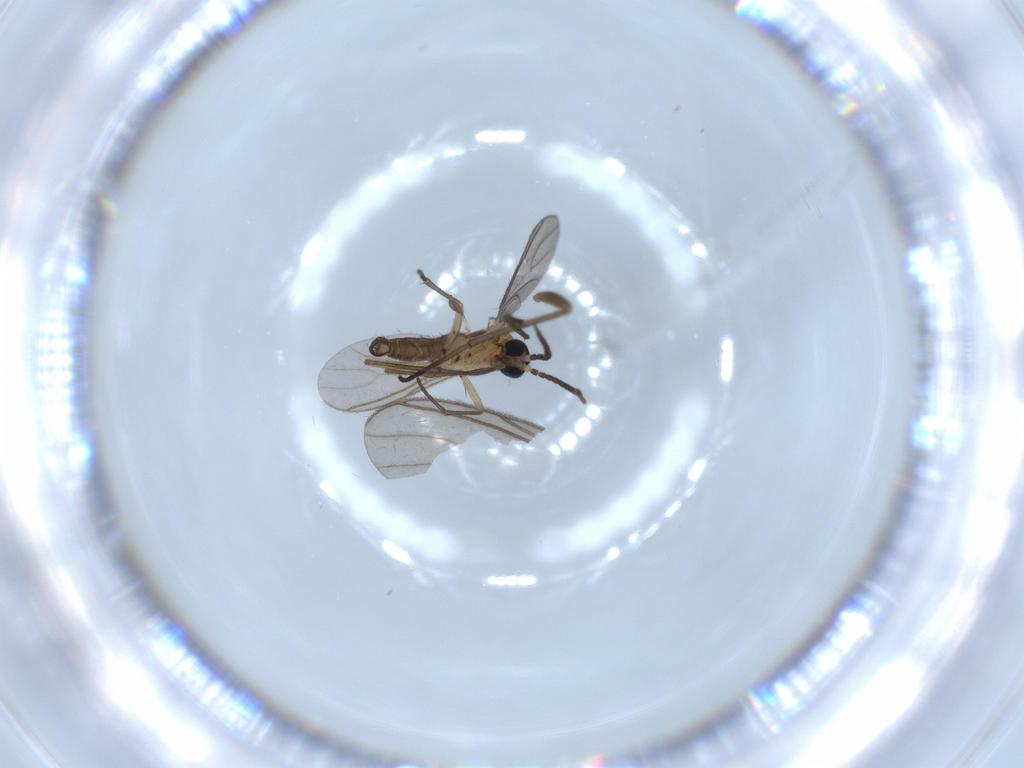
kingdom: Animalia
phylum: Arthropoda
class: Insecta
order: Diptera
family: Sciaridae
